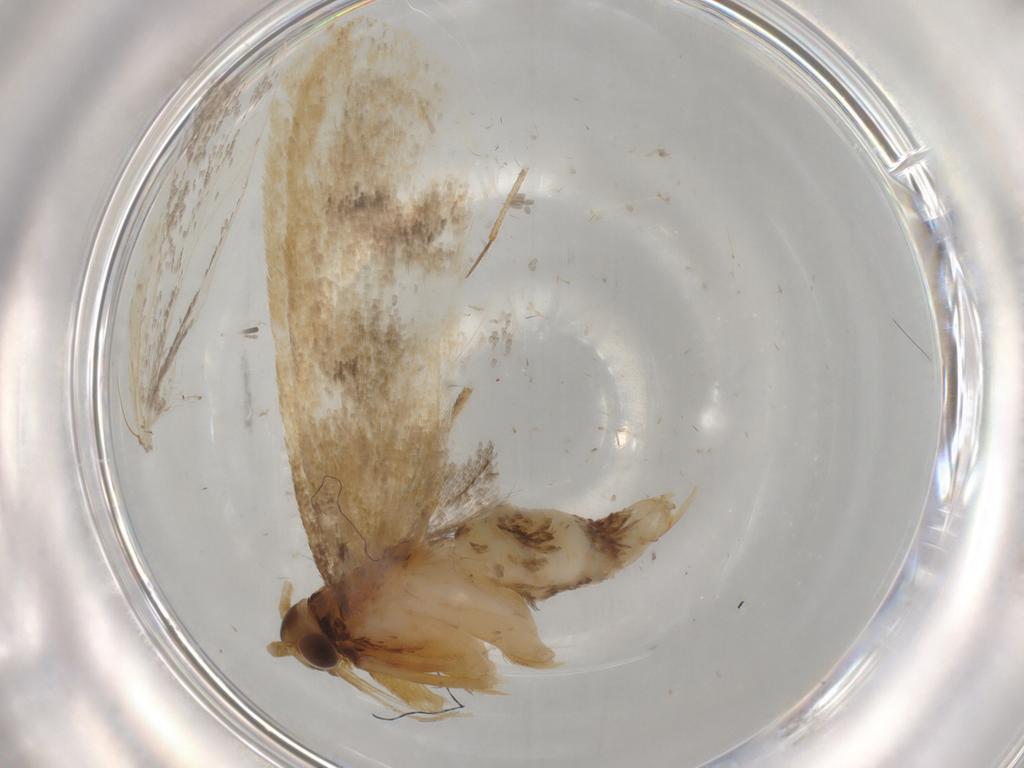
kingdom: Animalia
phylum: Arthropoda
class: Insecta
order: Lepidoptera
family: Lecithoceridae
